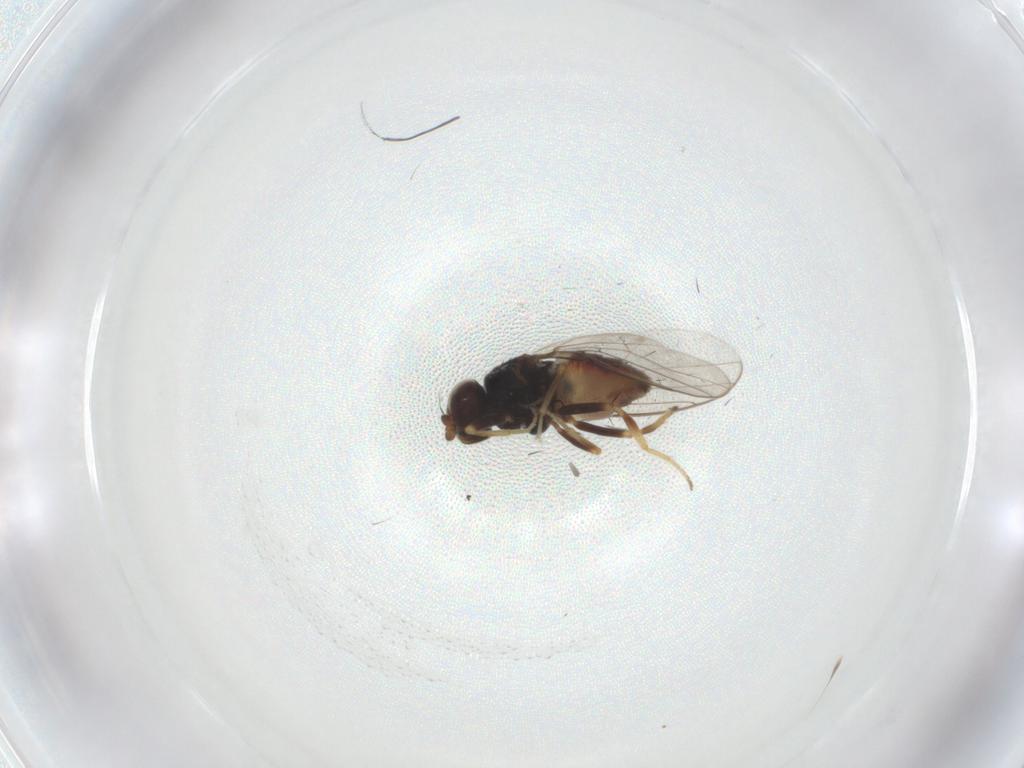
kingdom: Animalia
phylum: Arthropoda
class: Insecta
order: Diptera
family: Chloropidae
